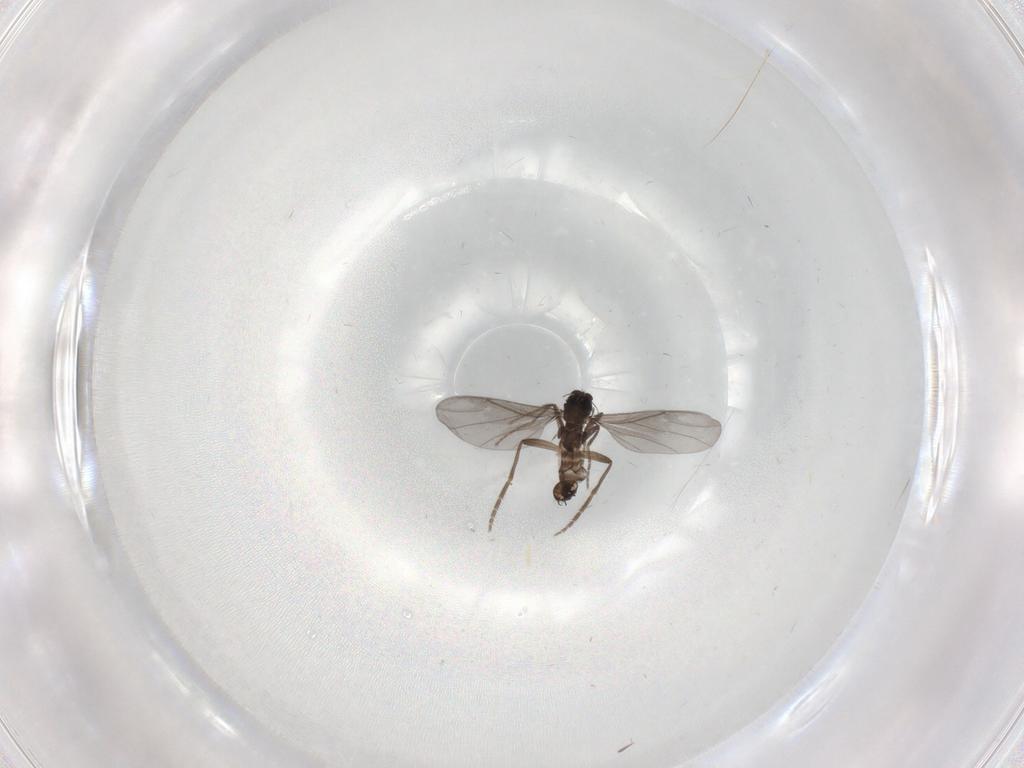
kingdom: Animalia
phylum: Arthropoda
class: Insecta
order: Diptera
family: Phoridae
